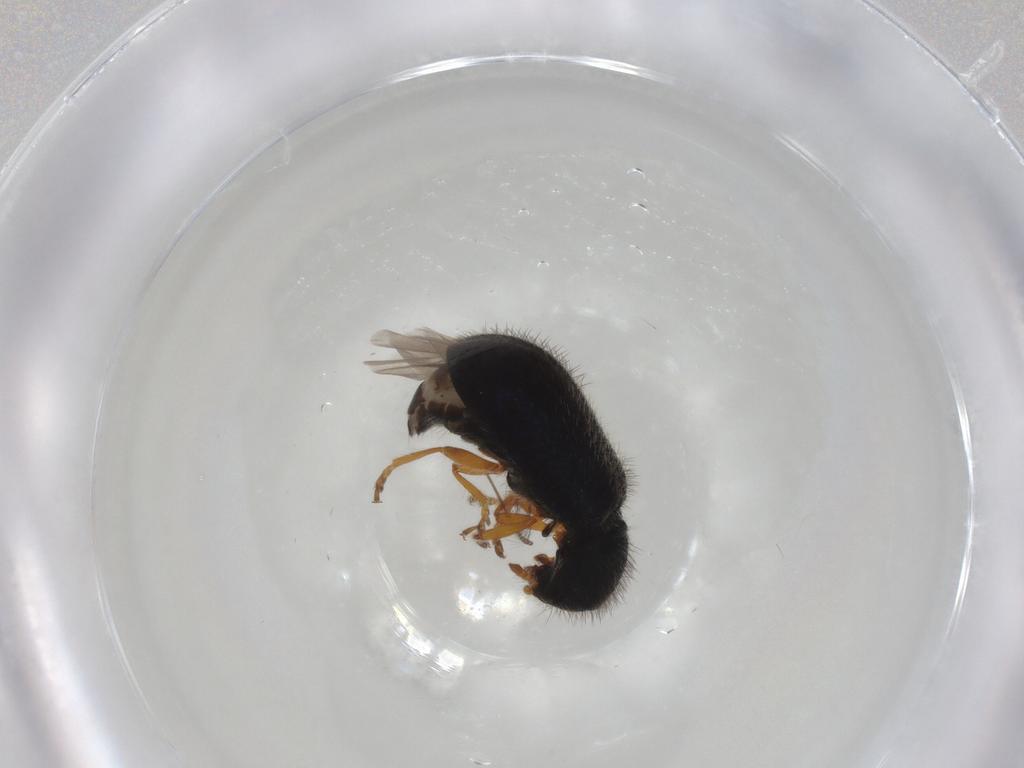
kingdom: Animalia
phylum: Arthropoda
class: Insecta
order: Coleoptera
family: Cleridae
